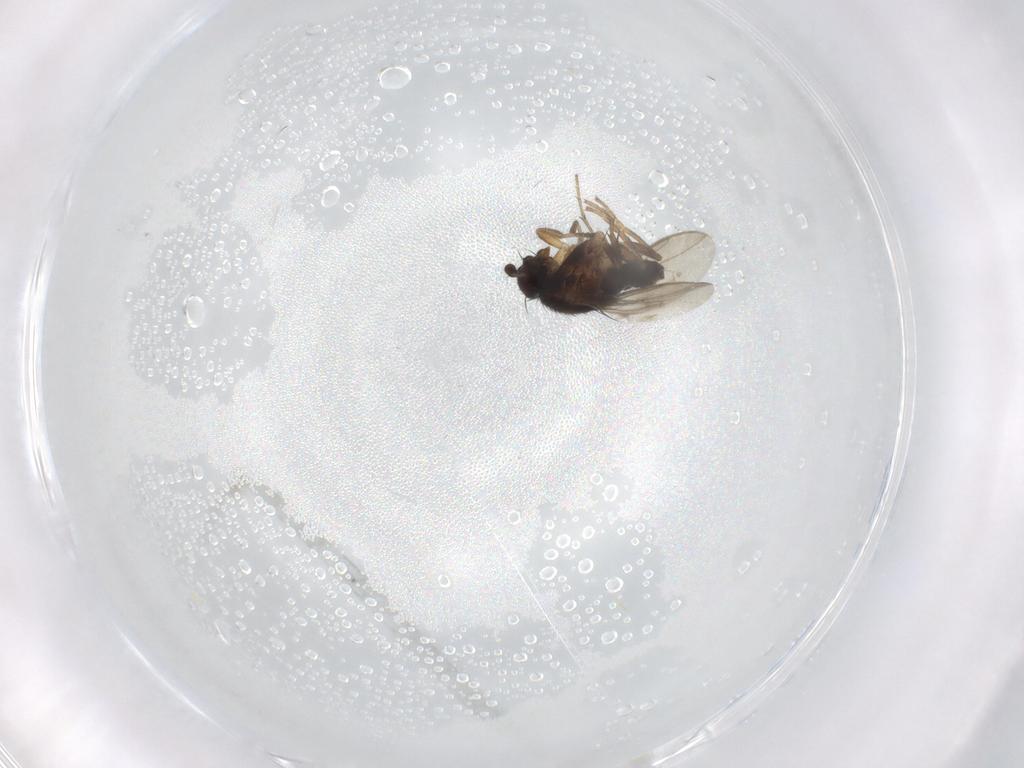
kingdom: Animalia
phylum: Arthropoda
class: Insecta
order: Diptera
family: Sphaeroceridae
